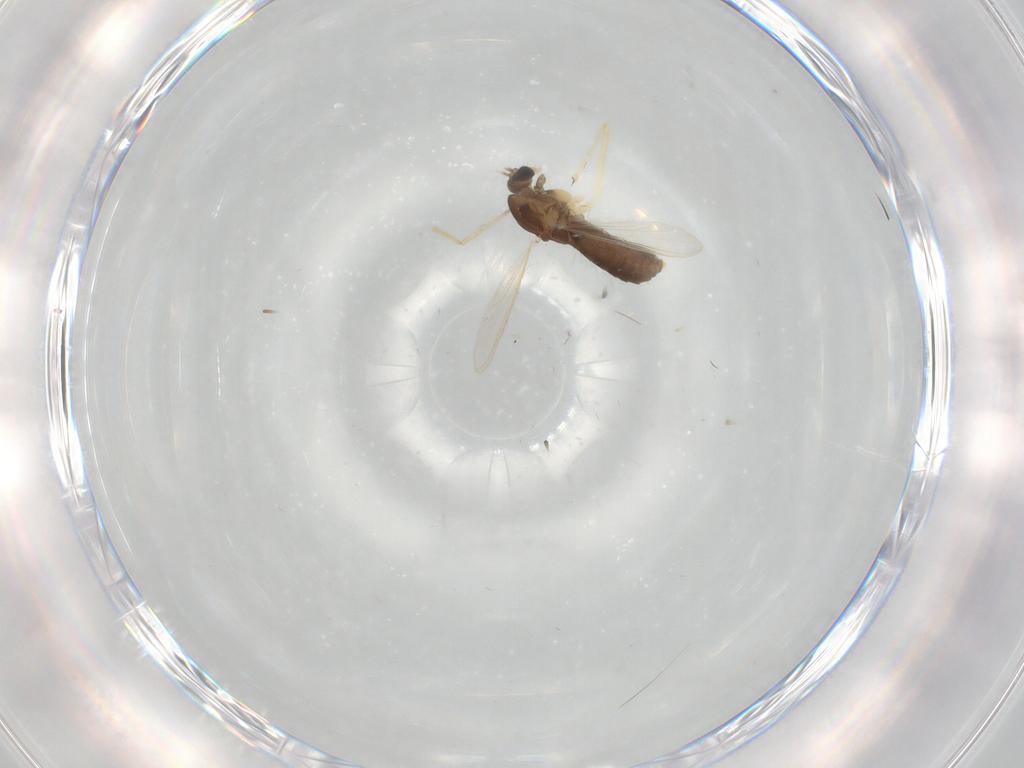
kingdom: Animalia
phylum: Arthropoda
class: Insecta
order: Diptera
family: Chironomidae
